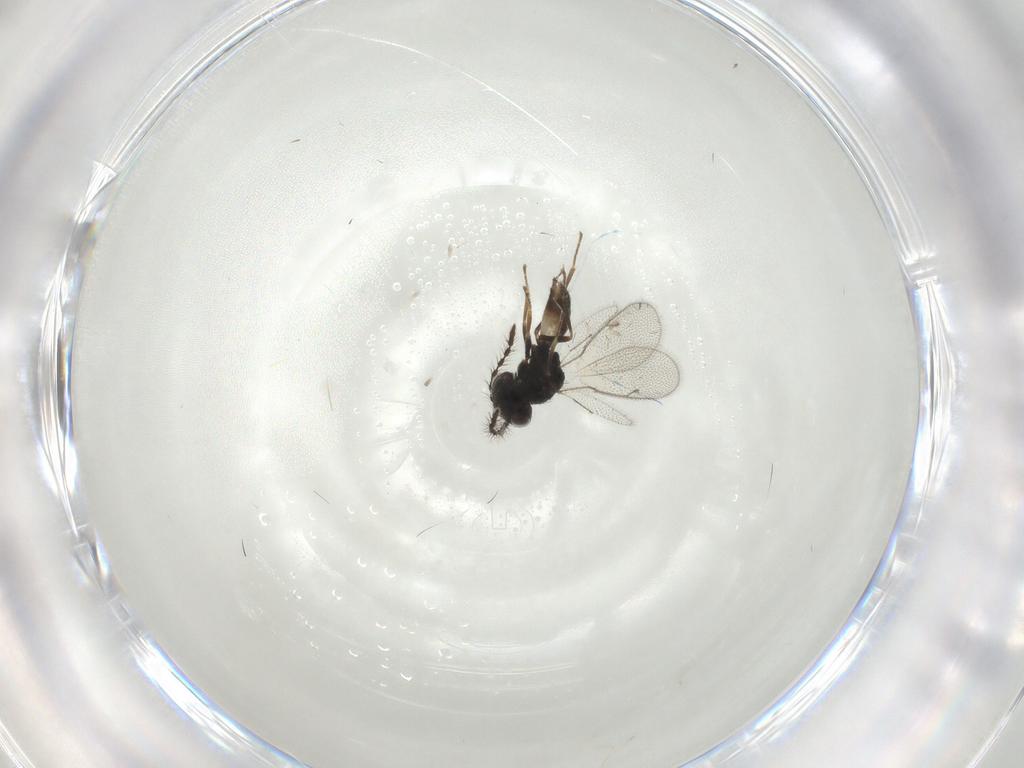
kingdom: Animalia
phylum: Arthropoda
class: Insecta
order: Hymenoptera
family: Pteromalidae
